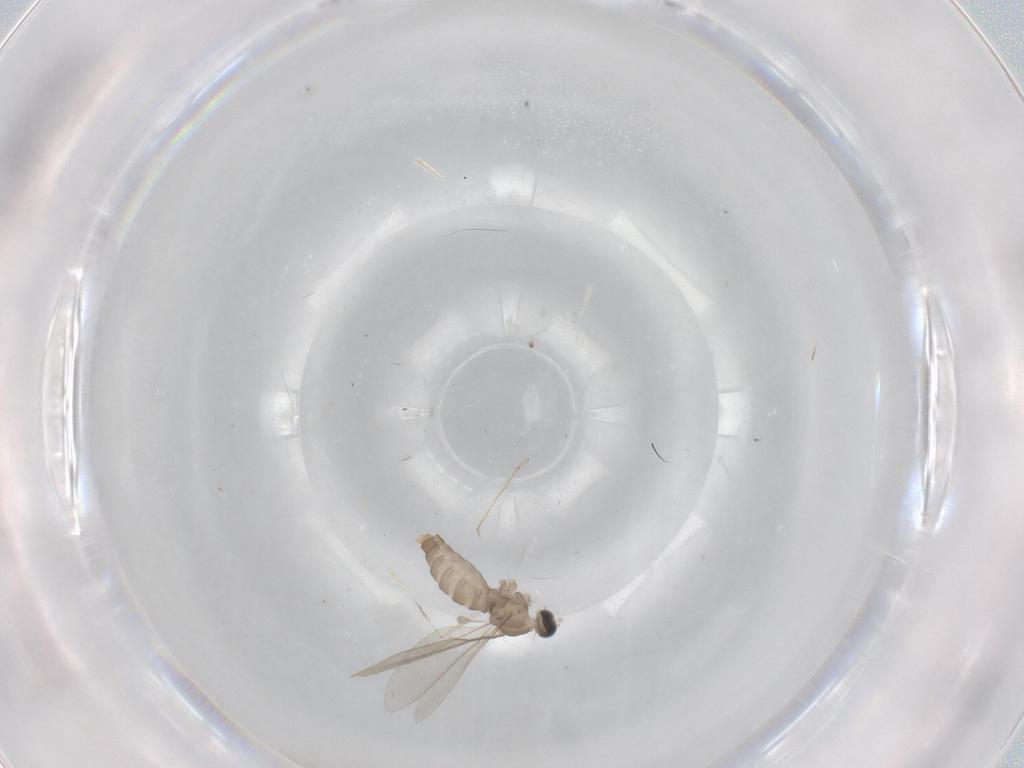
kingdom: Animalia
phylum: Arthropoda
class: Insecta
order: Diptera
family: Cecidomyiidae
